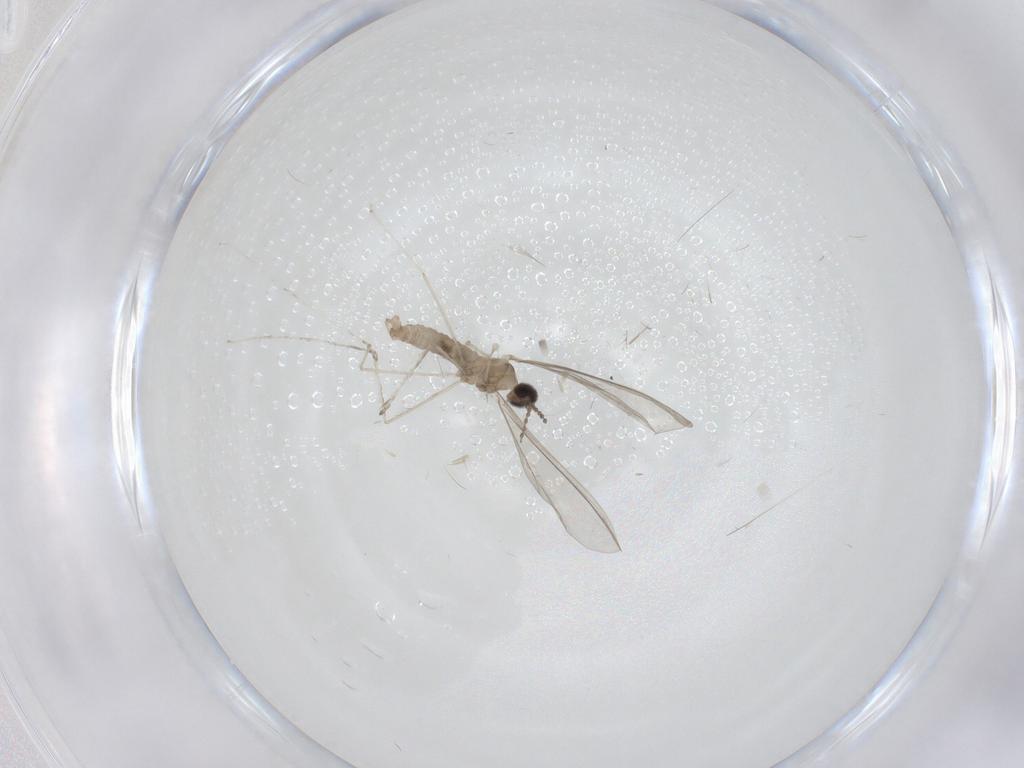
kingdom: Animalia
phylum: Arthropoda
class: Insecta
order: Diptera
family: Cecidomyiidae
